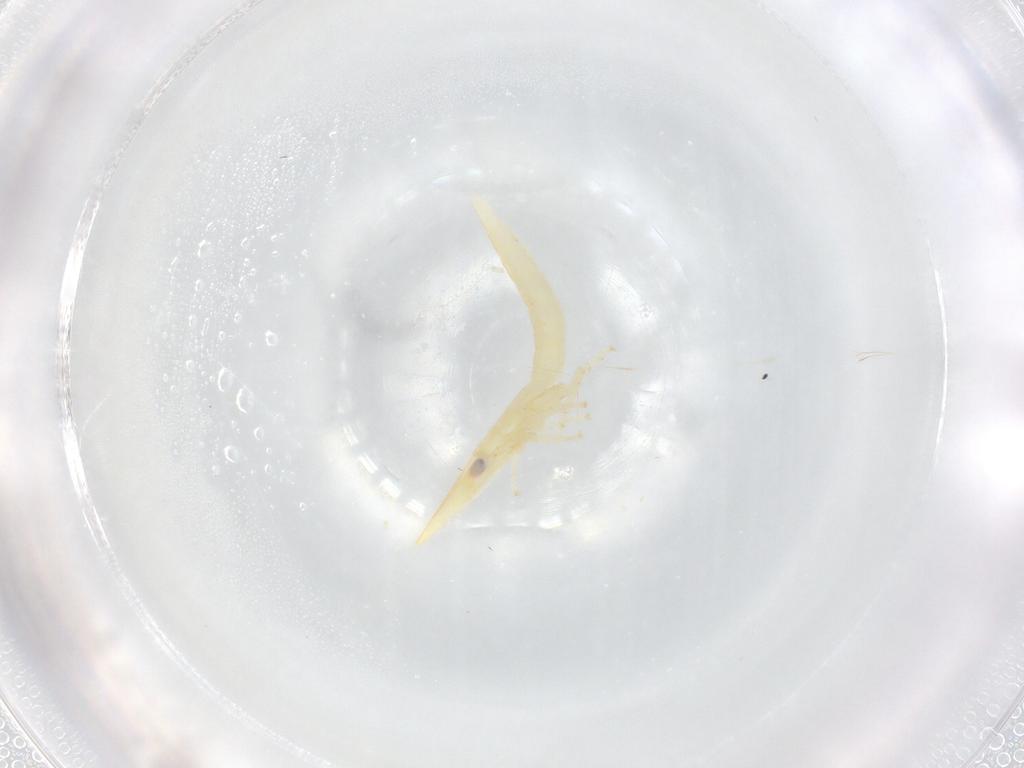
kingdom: Animalia
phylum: Arthropoda
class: Insecta
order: Hemiptera
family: Cicadellidae
